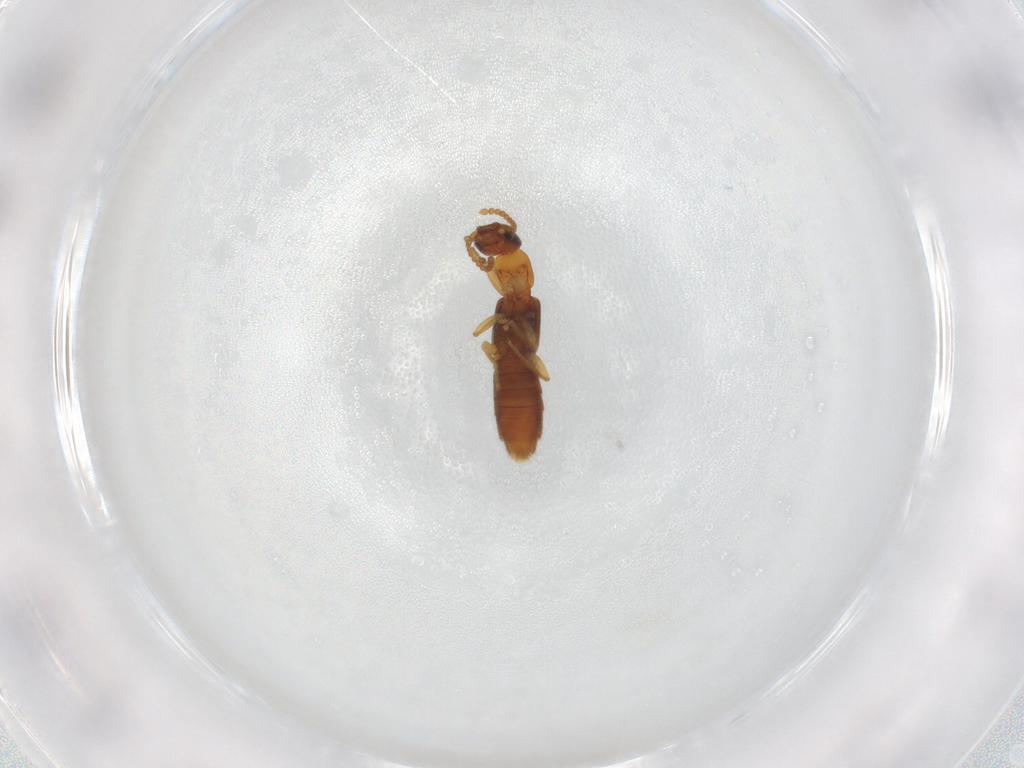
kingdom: Animalia
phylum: Arthropoda
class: Insecta
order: Coleoptera
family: Staphylinidae
